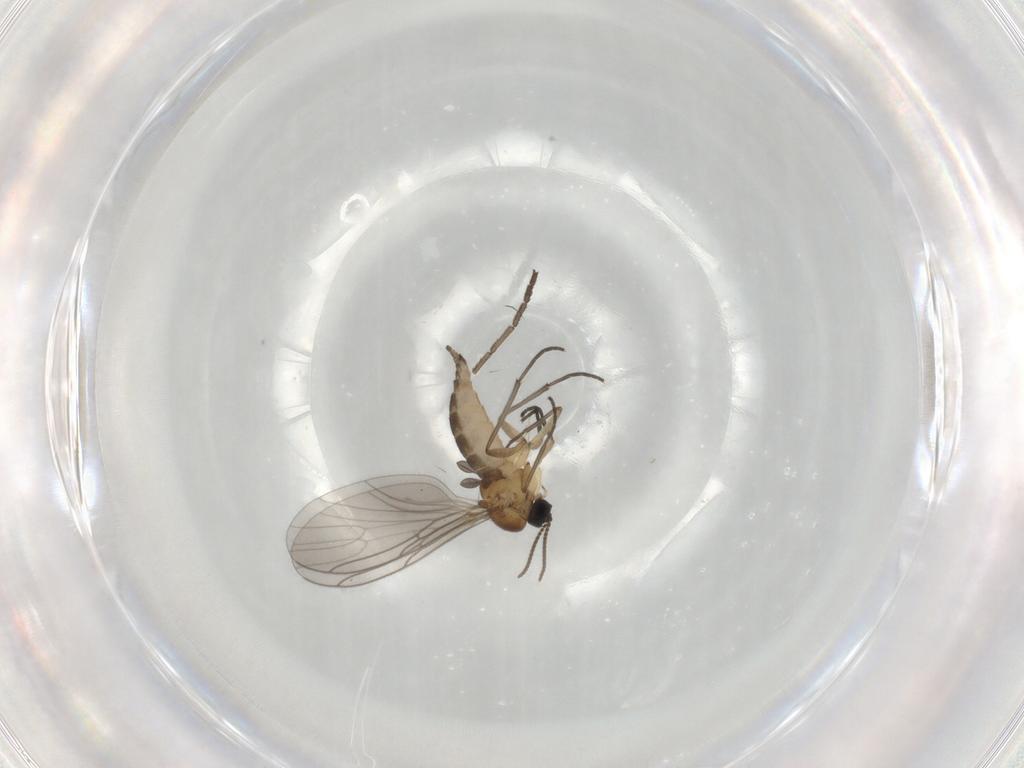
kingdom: Animalia
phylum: Arthropoda
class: Insecta
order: Diptera
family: Sciaridae
